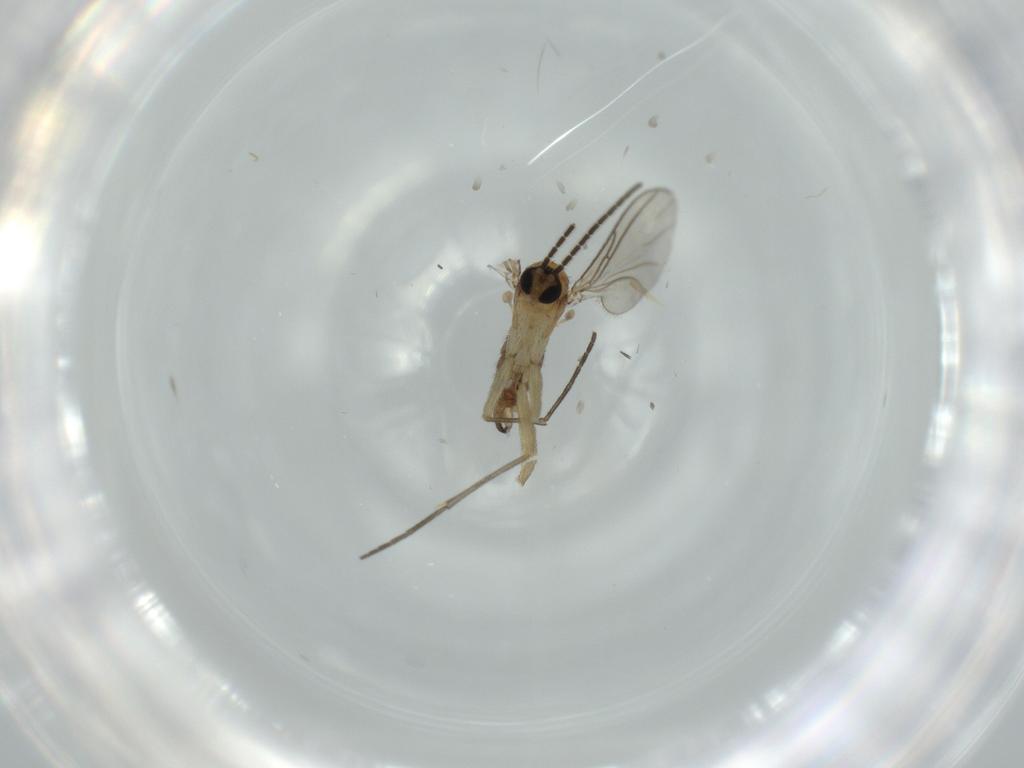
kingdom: Animalia
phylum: Arthropoda
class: Insecta
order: Diptera
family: Sciaridae
